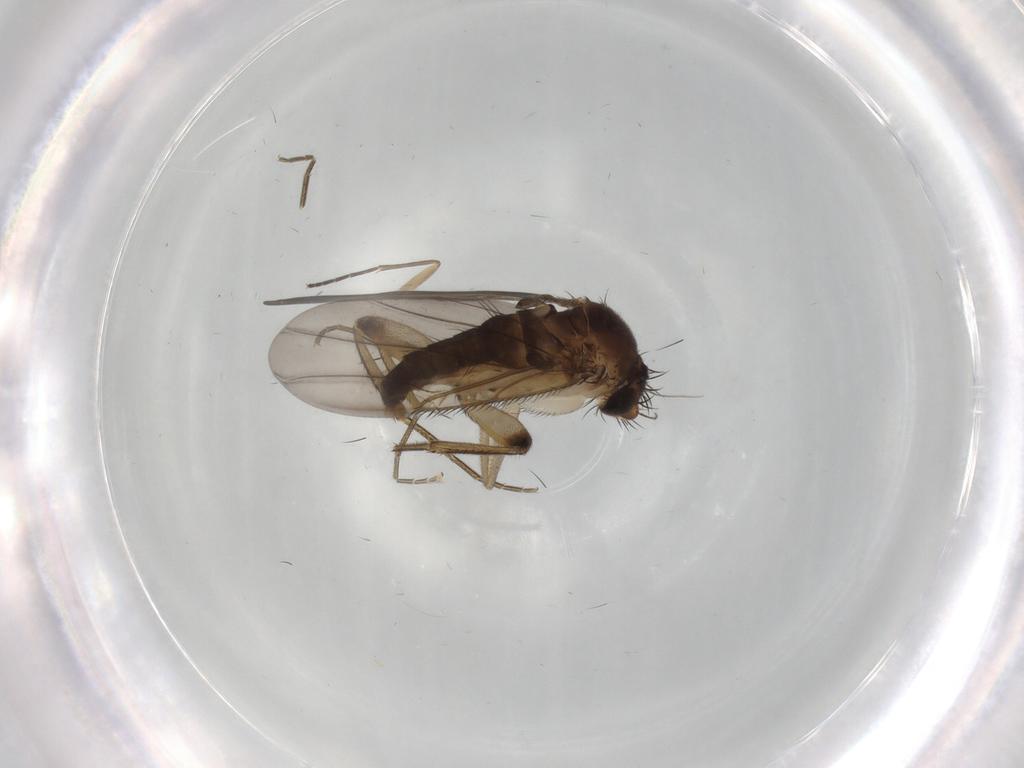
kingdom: Animalia
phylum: Arthropoda
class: Insecta
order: Diptera
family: Phoridae
